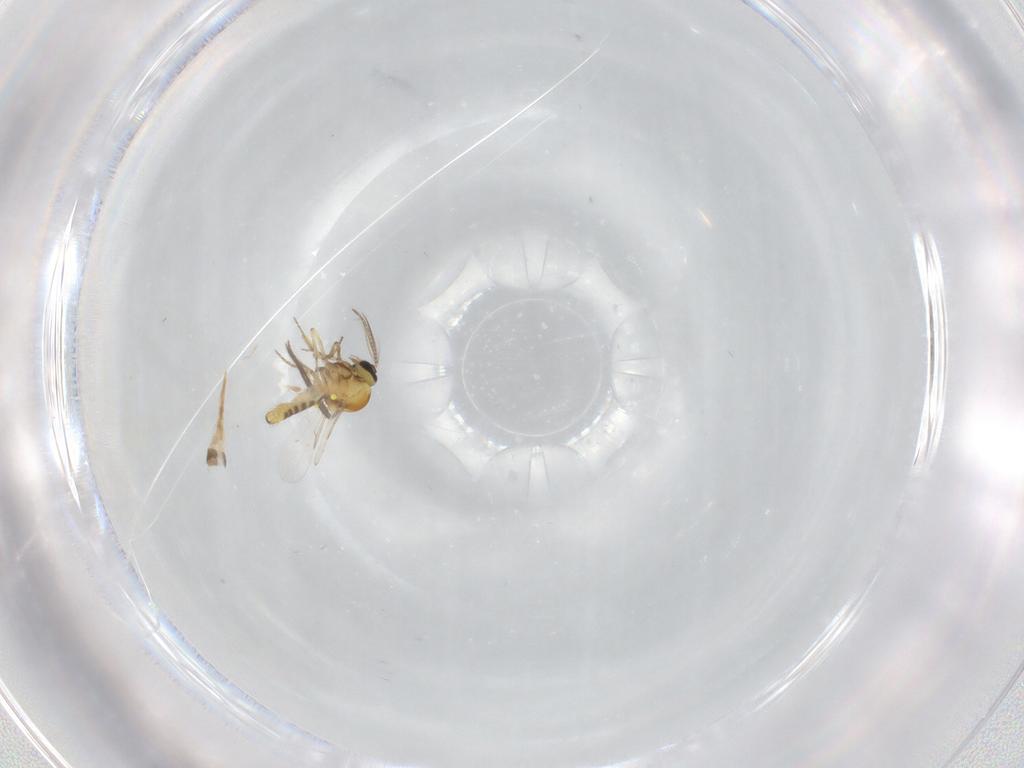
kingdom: Animalia
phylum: Arthropoda
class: Insecta
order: Diptera
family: Ceratopogonidae
